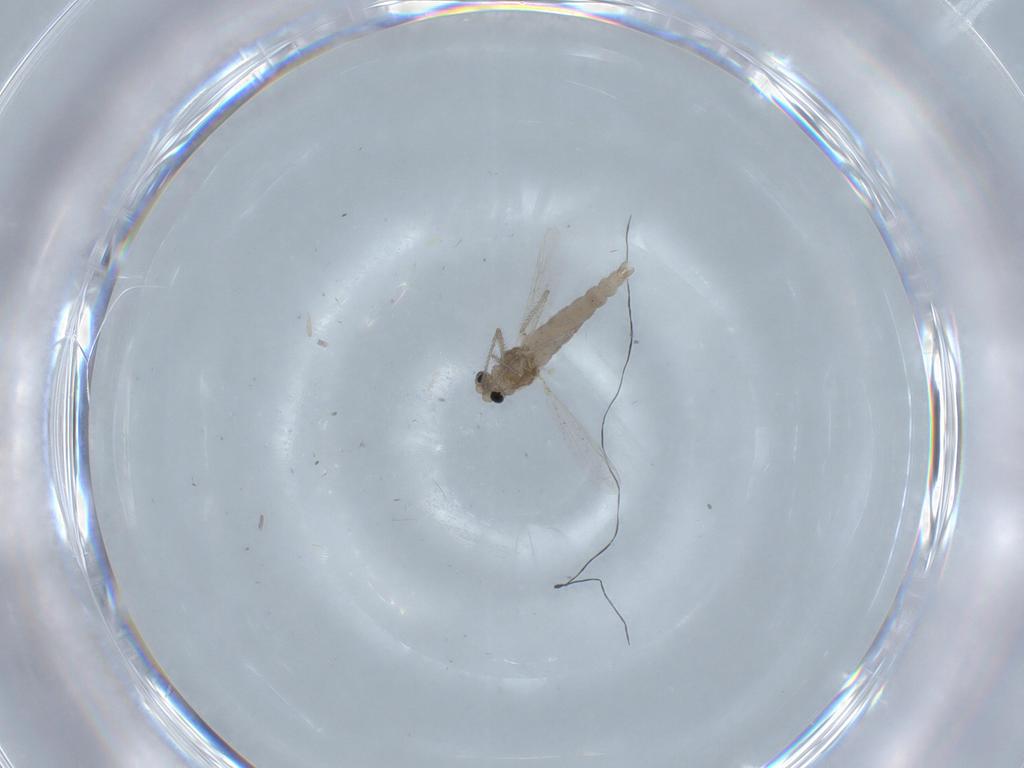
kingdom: Animalia
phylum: Arthropoda
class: Insecta
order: Diptera
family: Chironomidae
